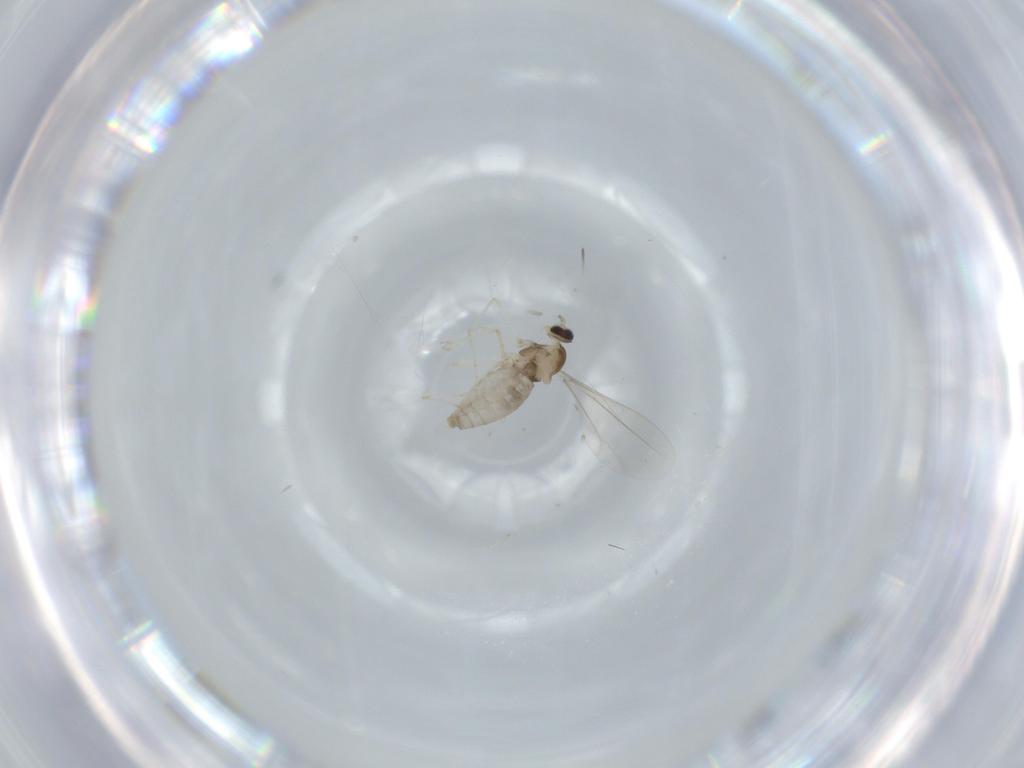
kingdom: Animalia
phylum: Arthropoda
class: Insecta
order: Diptera
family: Cecidomyiidae
